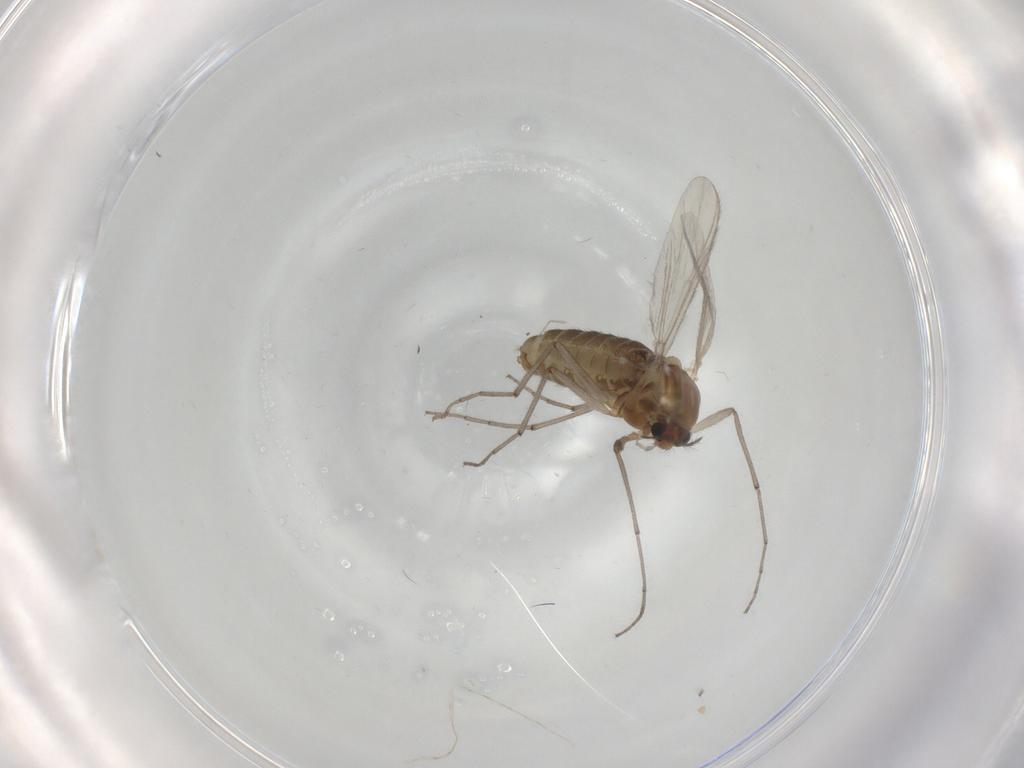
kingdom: Animalia
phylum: Arthropoda
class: Insecta
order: Diptera
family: Chironomidae
